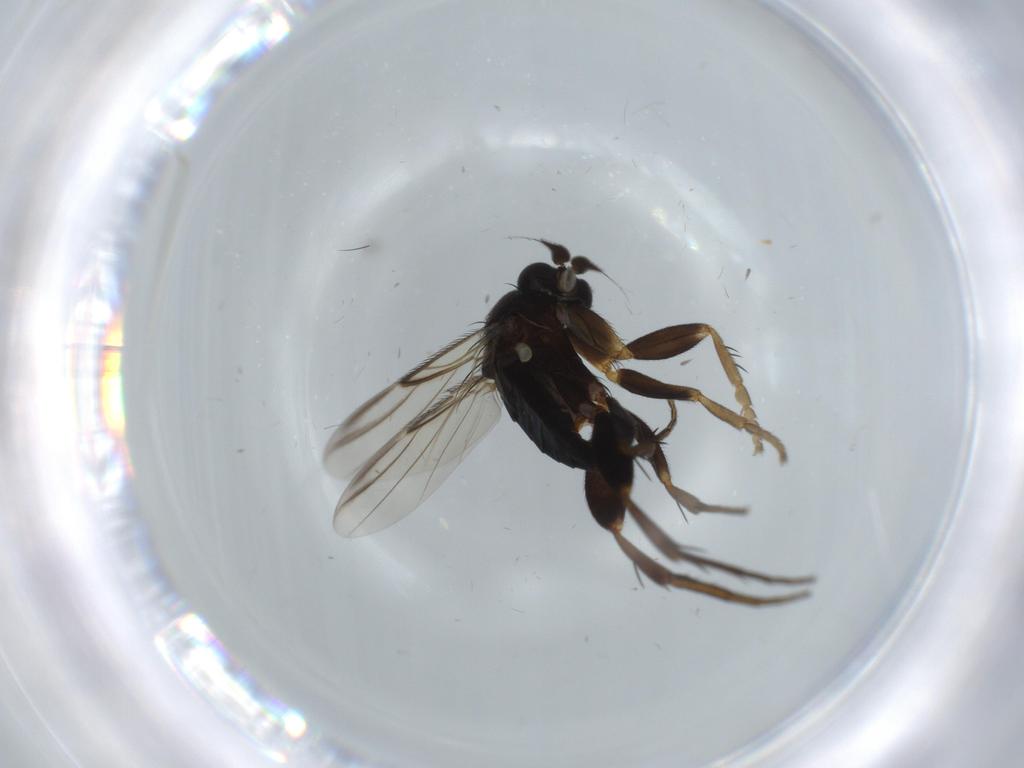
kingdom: Animalia
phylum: Arthropoda
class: Insecta
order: Diptera
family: Phoridae
